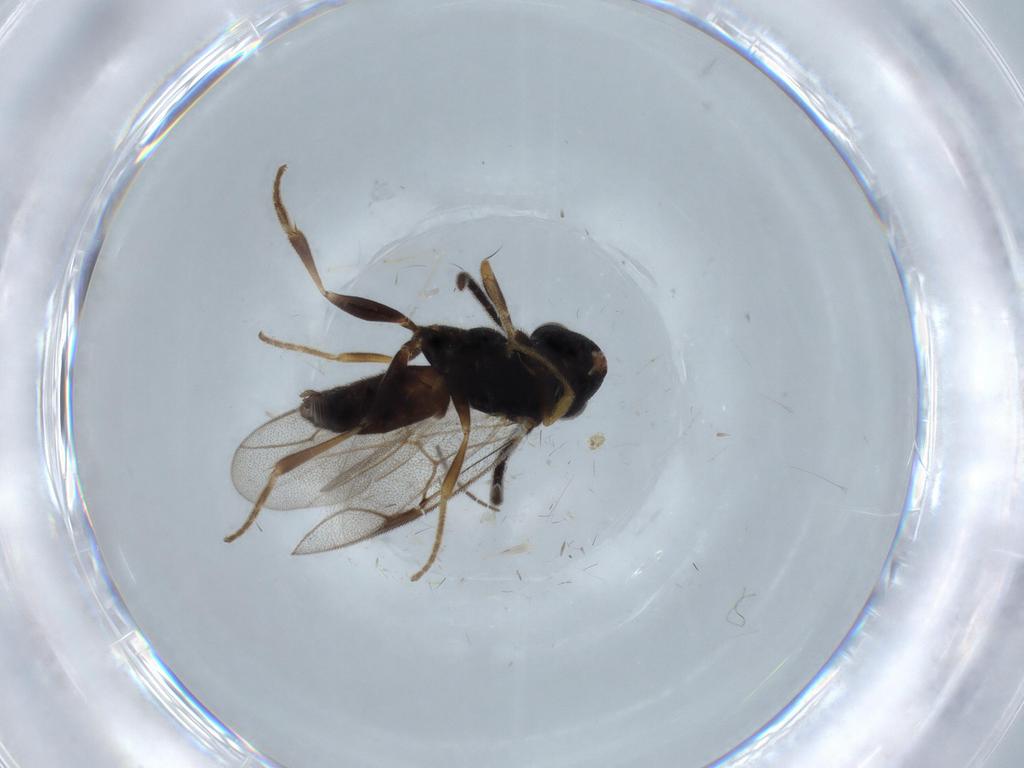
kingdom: Animalia
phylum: Arthropoda
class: Insecta
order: Hymenoptera
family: Dryinidae
